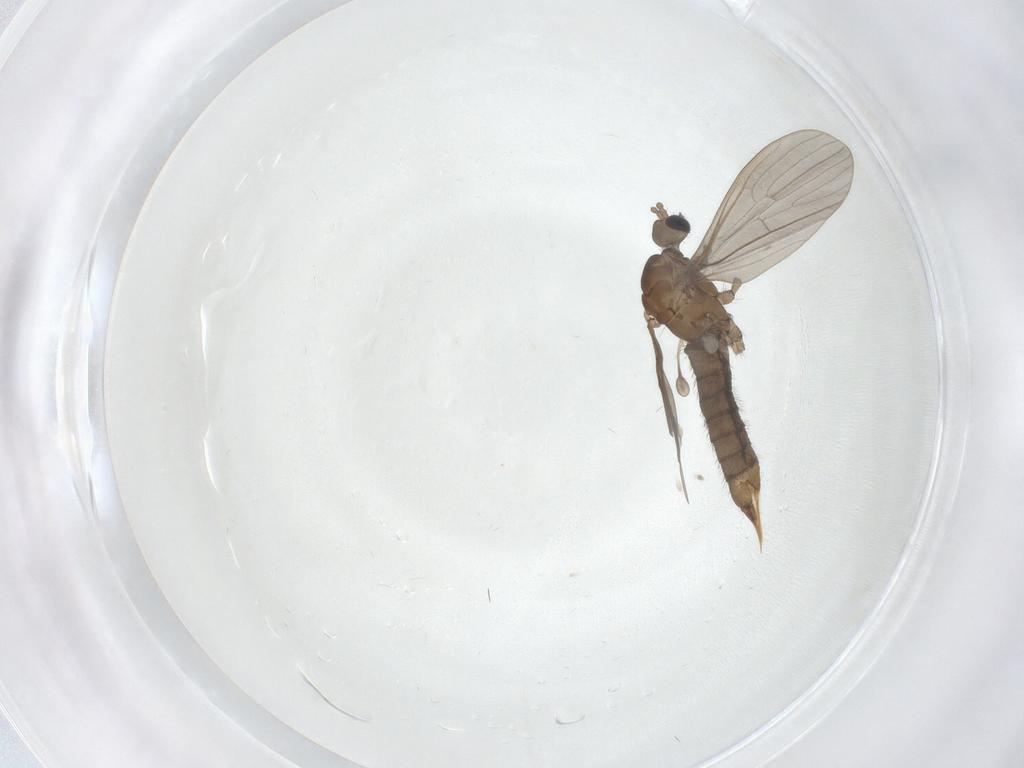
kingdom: Animalia
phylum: Arthropoda
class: Insecta
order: Diptera
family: Limoniidae
